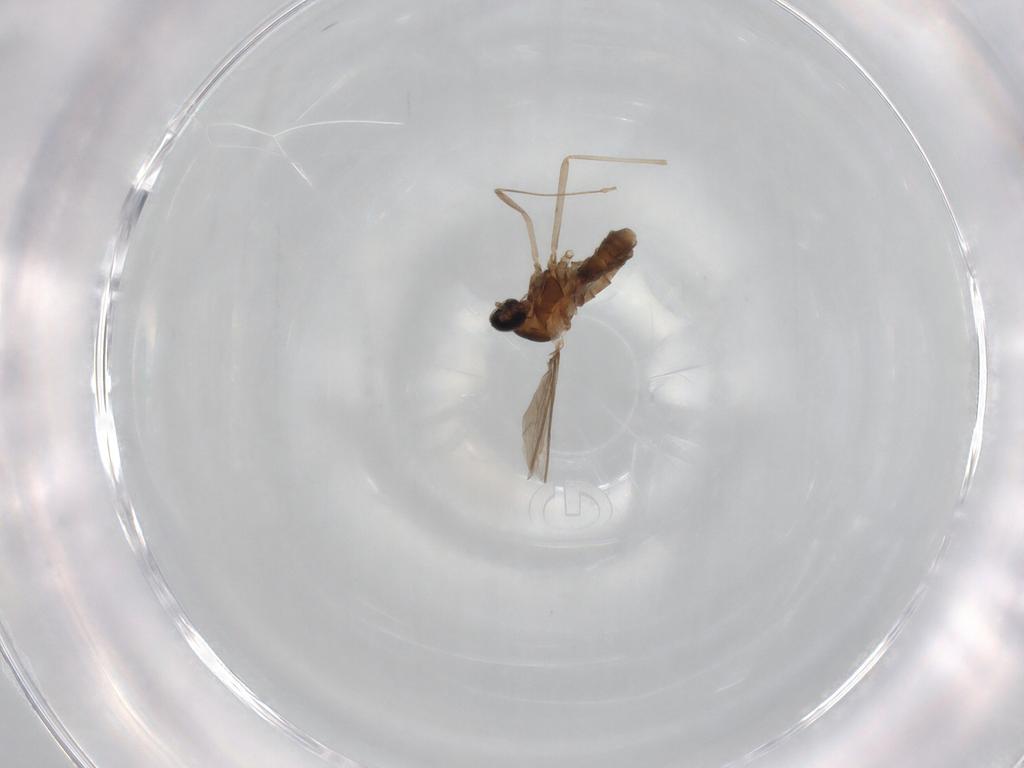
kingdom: Animalia
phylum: Arthropoda
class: Insecta
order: Diptera
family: Cecidomyiidae
